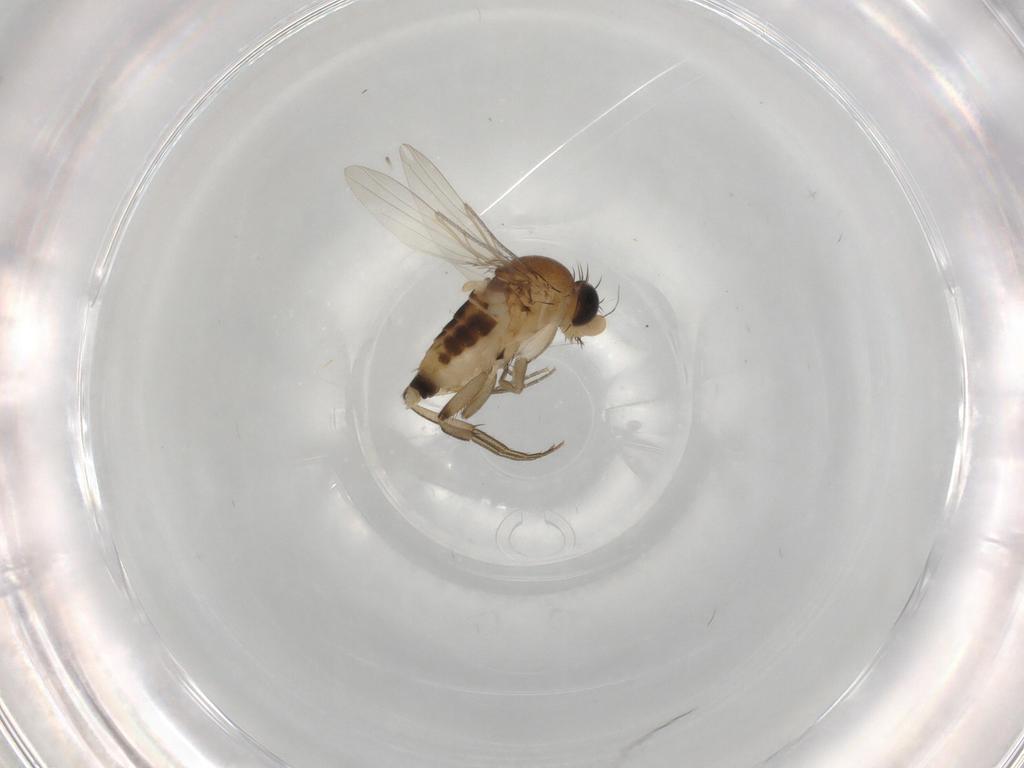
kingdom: Animalia
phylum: Arthropoda
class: Insecta
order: Diptera
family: Phoridae
